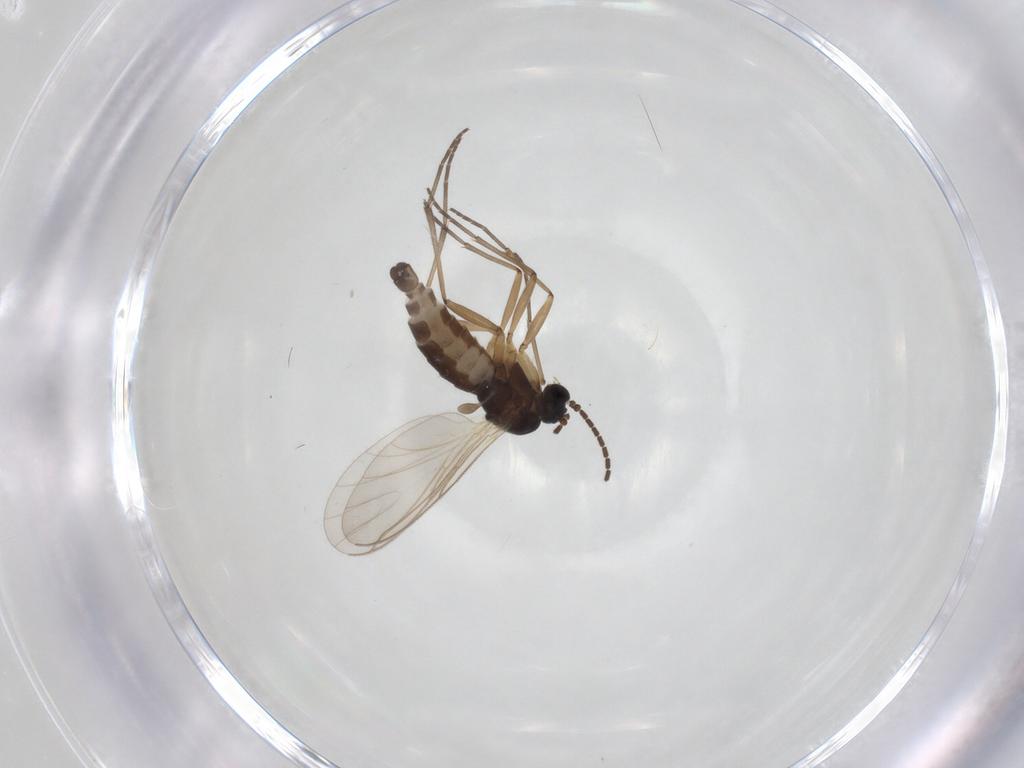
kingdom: Animalia
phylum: Arthropoda
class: Insecta
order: Diptera
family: Sciaridae
